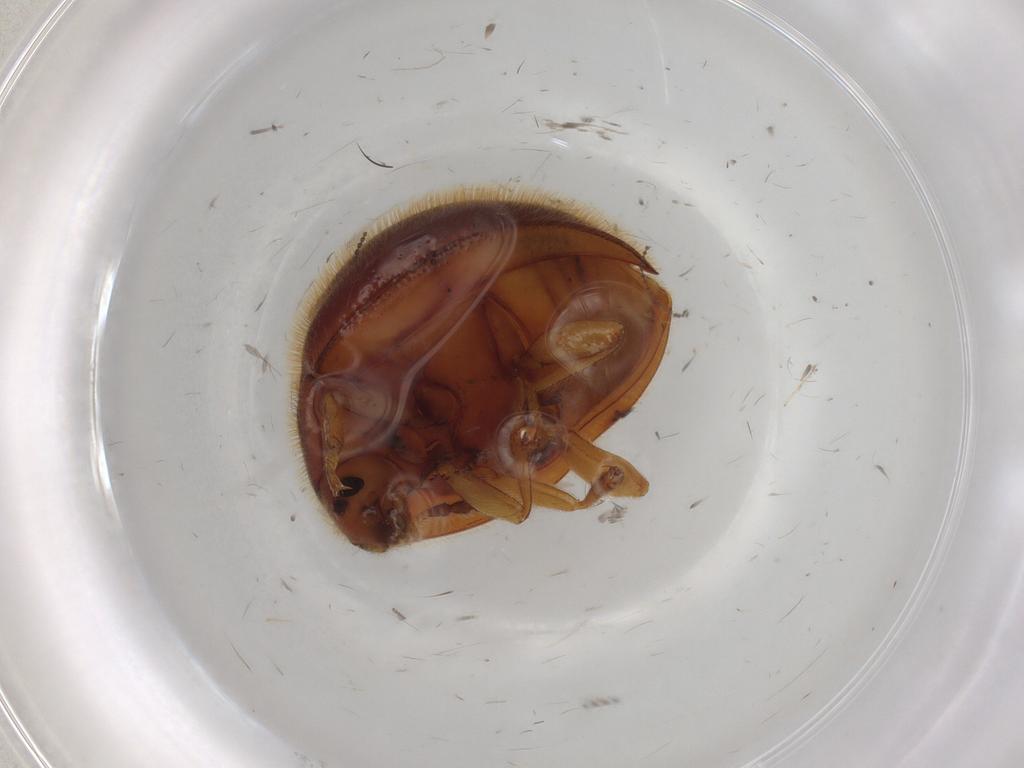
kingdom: Animalia
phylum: Arthropoda
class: Insecta
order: Coleoptera
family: Anamorphidae
